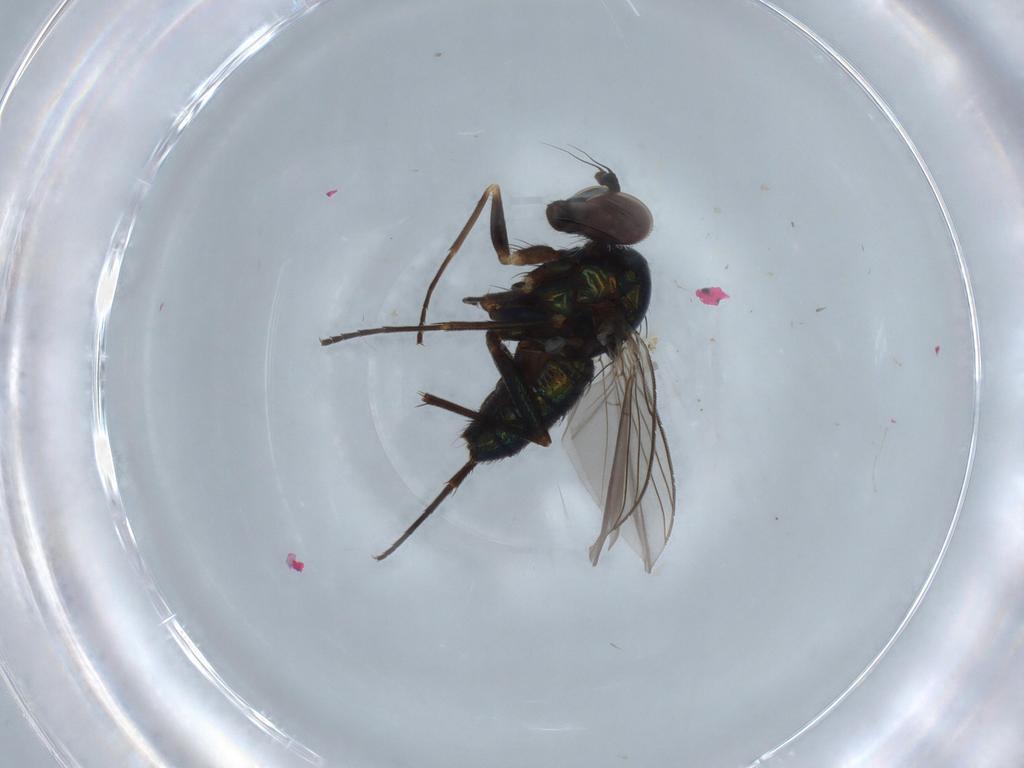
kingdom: Animalia
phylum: Arthropoda
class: Insecta
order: Diptera
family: Dolichopodidae
